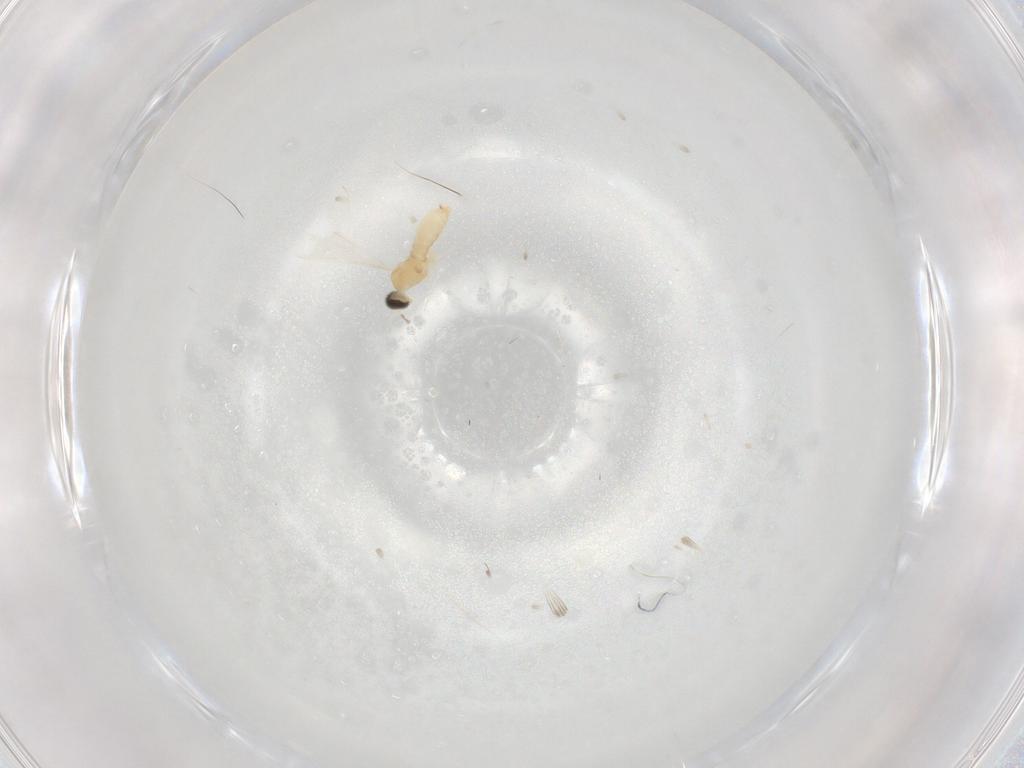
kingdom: Animalia
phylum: Arthropoda
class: Insecta
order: Diptera
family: Cecidomyiidae
